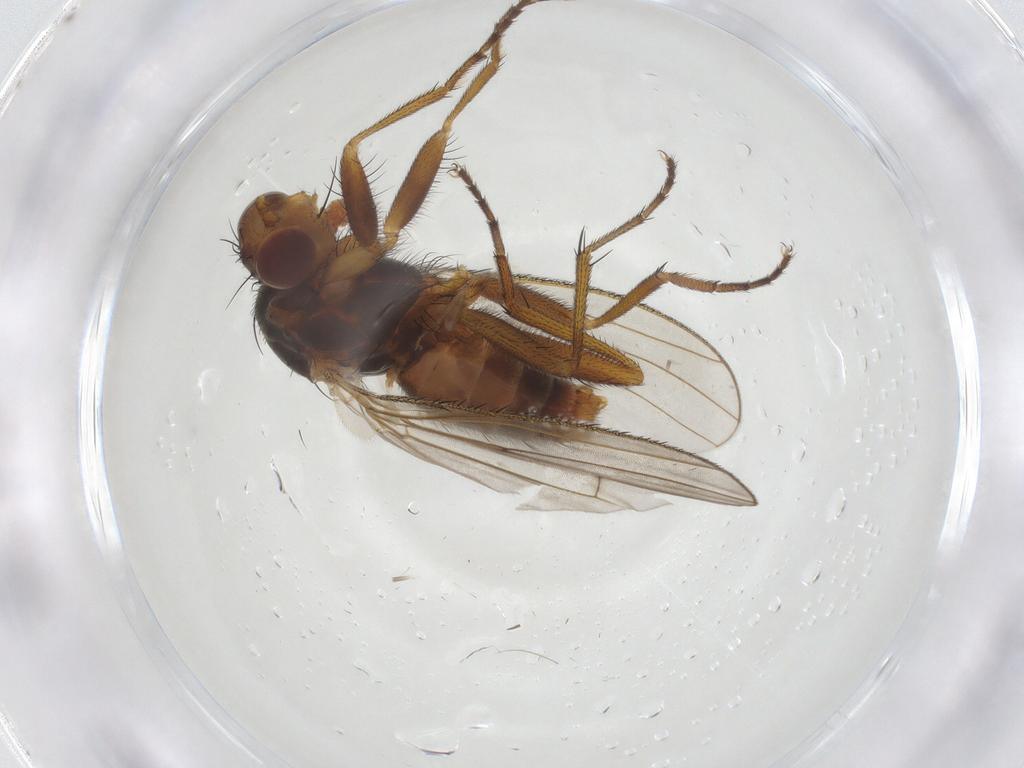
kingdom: Animalia
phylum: Arthropoda
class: Insecta
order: Diptera
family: Heleomyzidae
